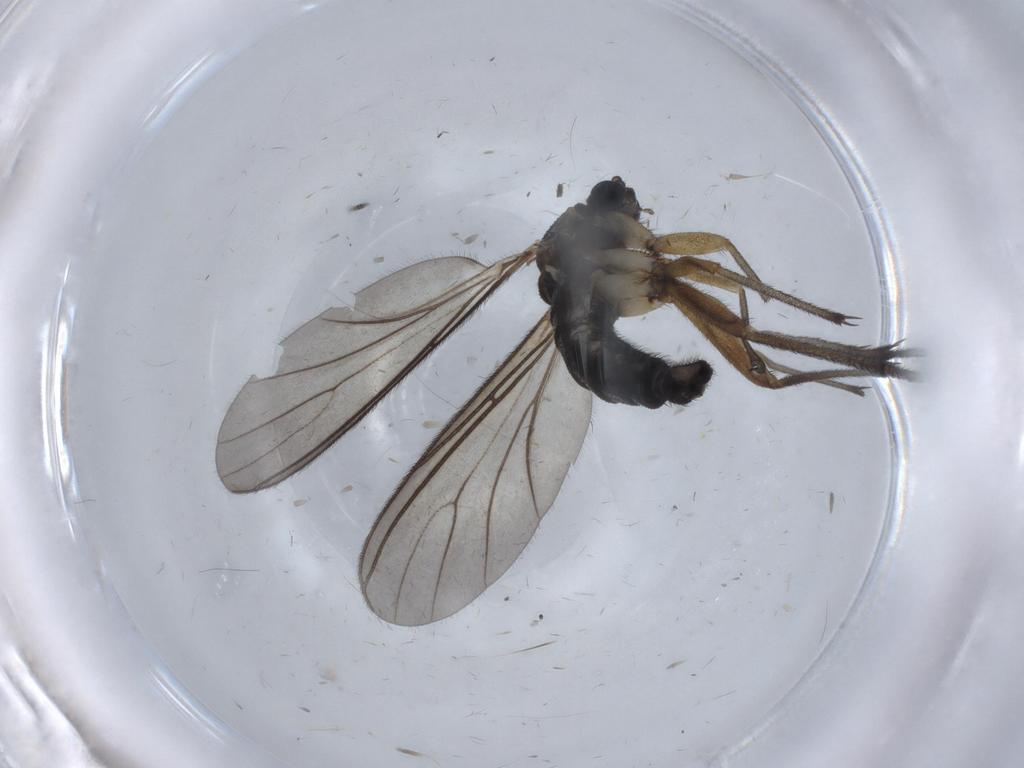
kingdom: Animalia
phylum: Arthropoda
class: Insecta
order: Diptera
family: Sciaridae
